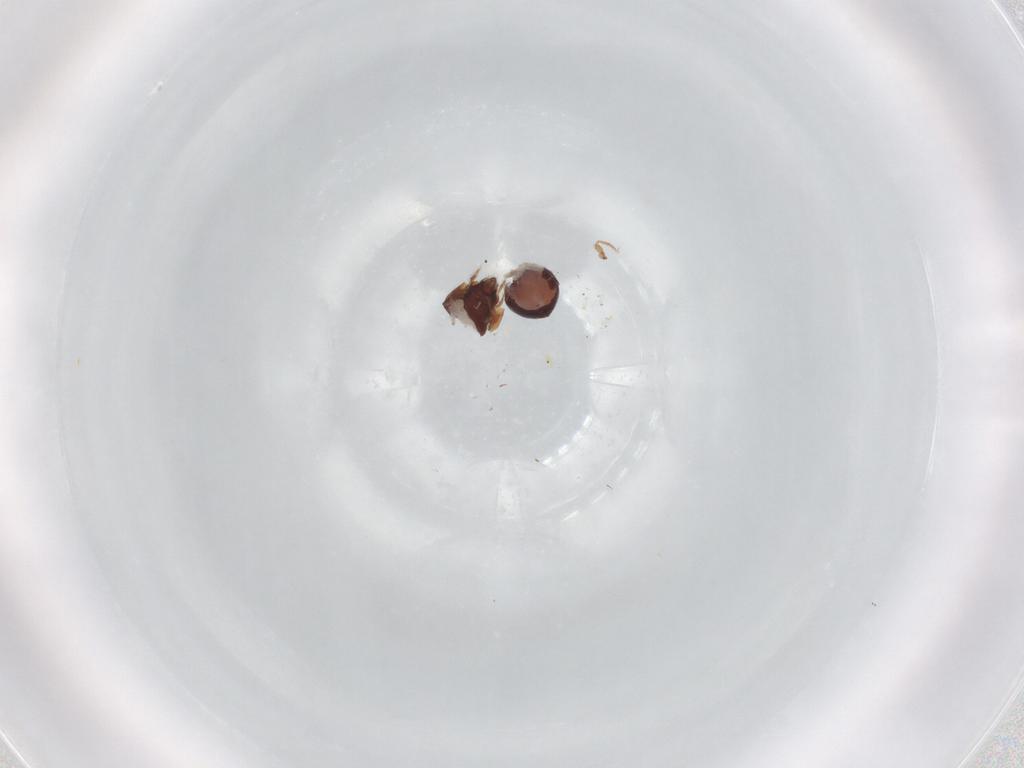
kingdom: Animalia
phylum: Arthropoda
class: Arachnida
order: Sarcoptiformes
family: Ceratozetidae
